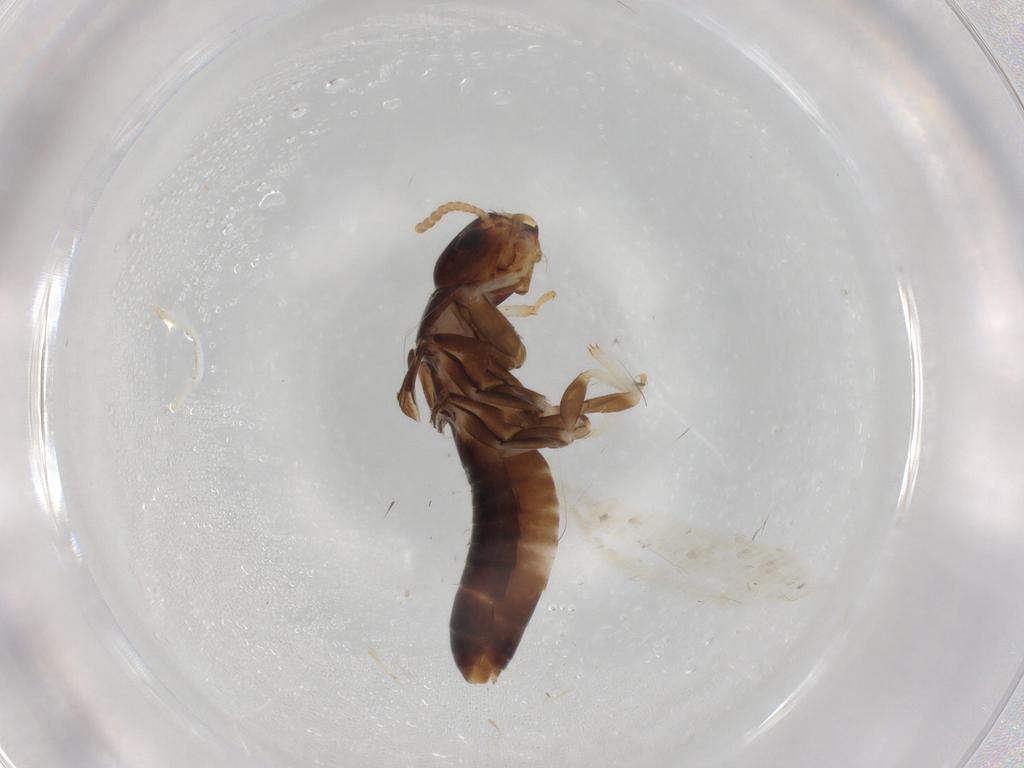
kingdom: Animalia
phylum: Arthropoda
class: Insecta
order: Blattodea
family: Kalotermitidae
